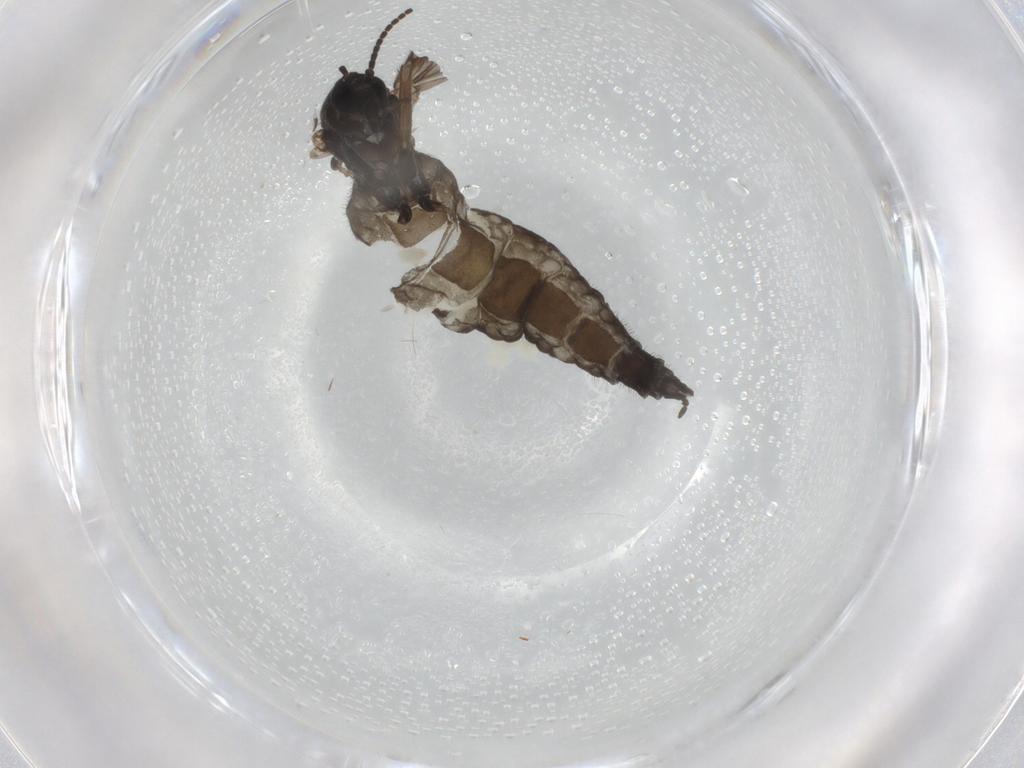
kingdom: Animalia
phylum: Arthropoda
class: Insecta
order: Diptera
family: Sciaridae
